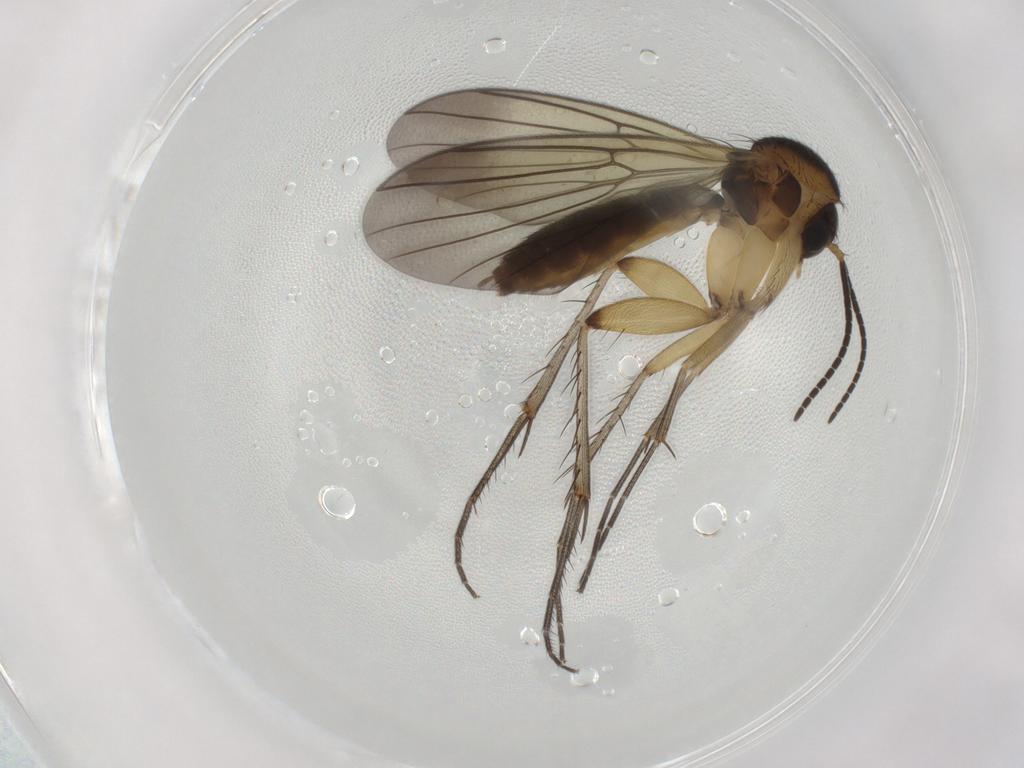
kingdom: Animalia
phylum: Arthropoda
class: Insecta
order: Diptera
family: Mycetophilidae
